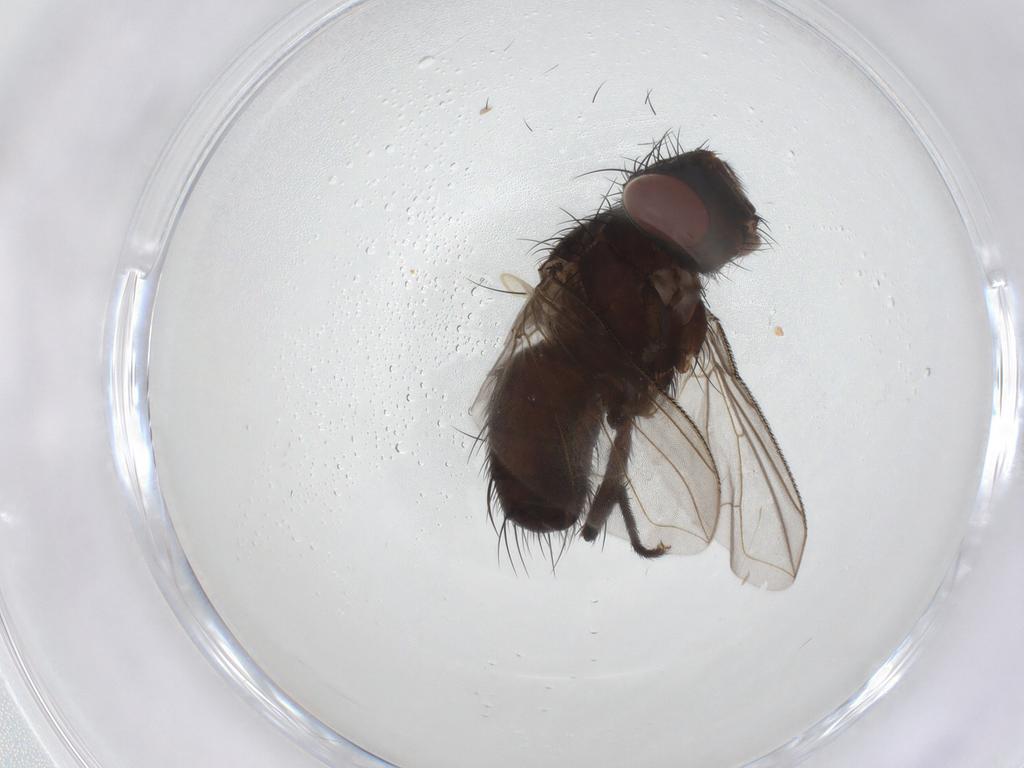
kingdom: Animalia
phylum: Arthropoda
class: Insecta
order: Diptera
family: Calliphoridae
